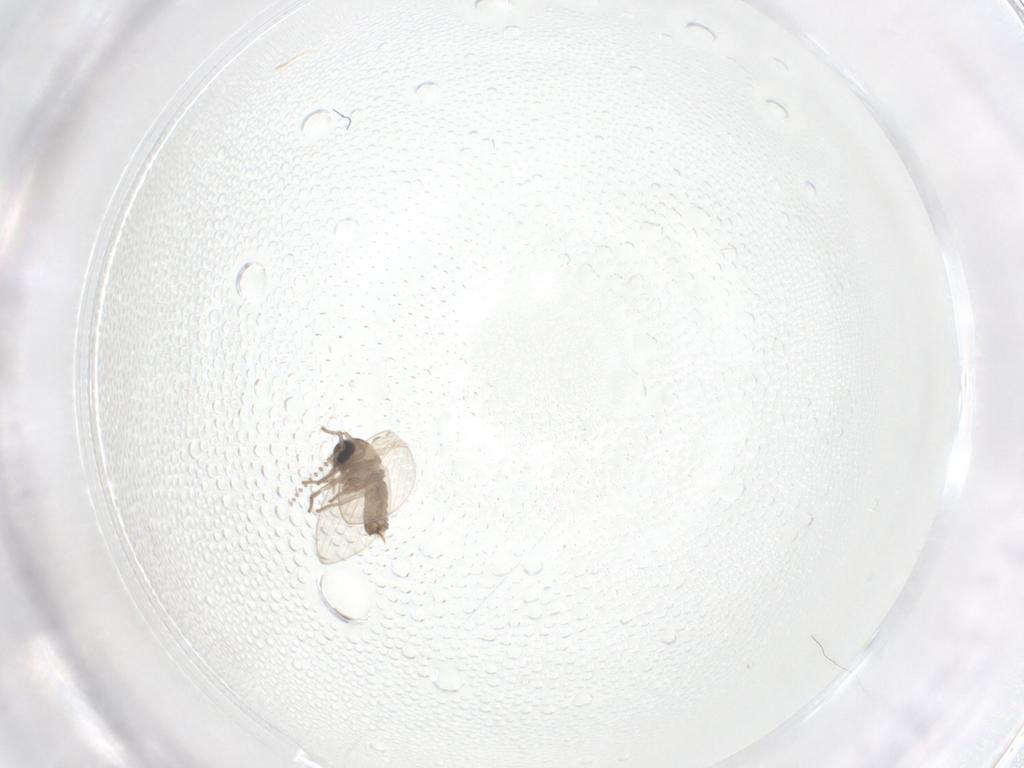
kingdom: Animalia
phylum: Arthropoda
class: Insecta
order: Diptera
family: Psychodidae
